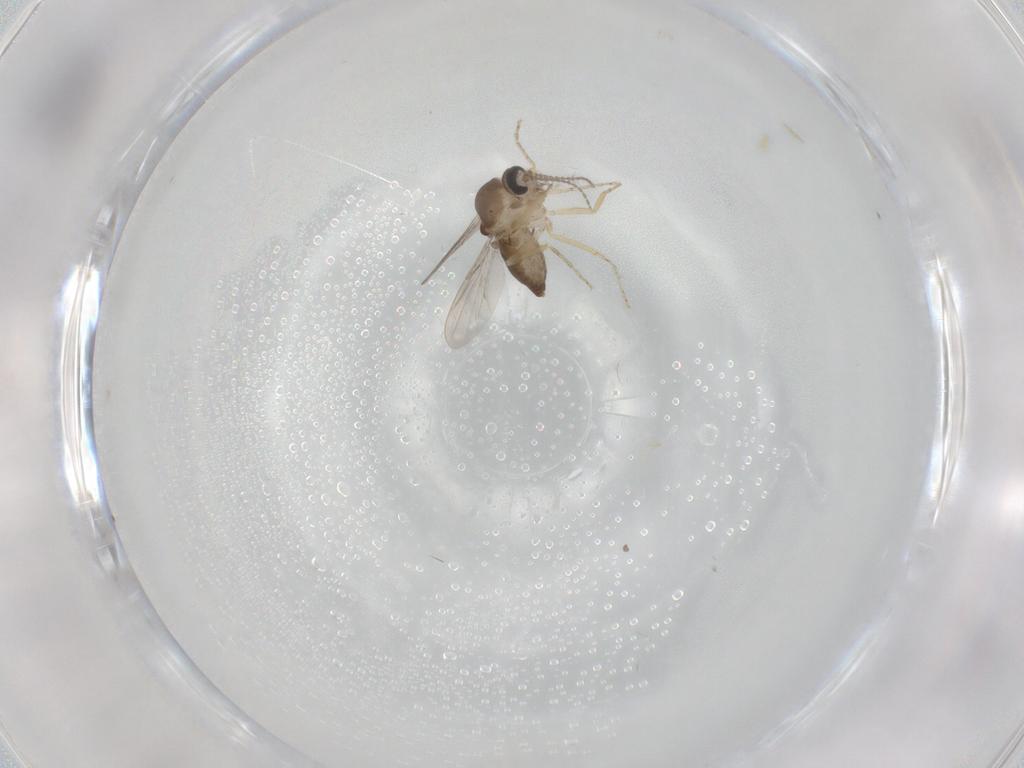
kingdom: Animalia
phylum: Arthropoda
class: Insecta
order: Diptera
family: Ceratopogonidae
